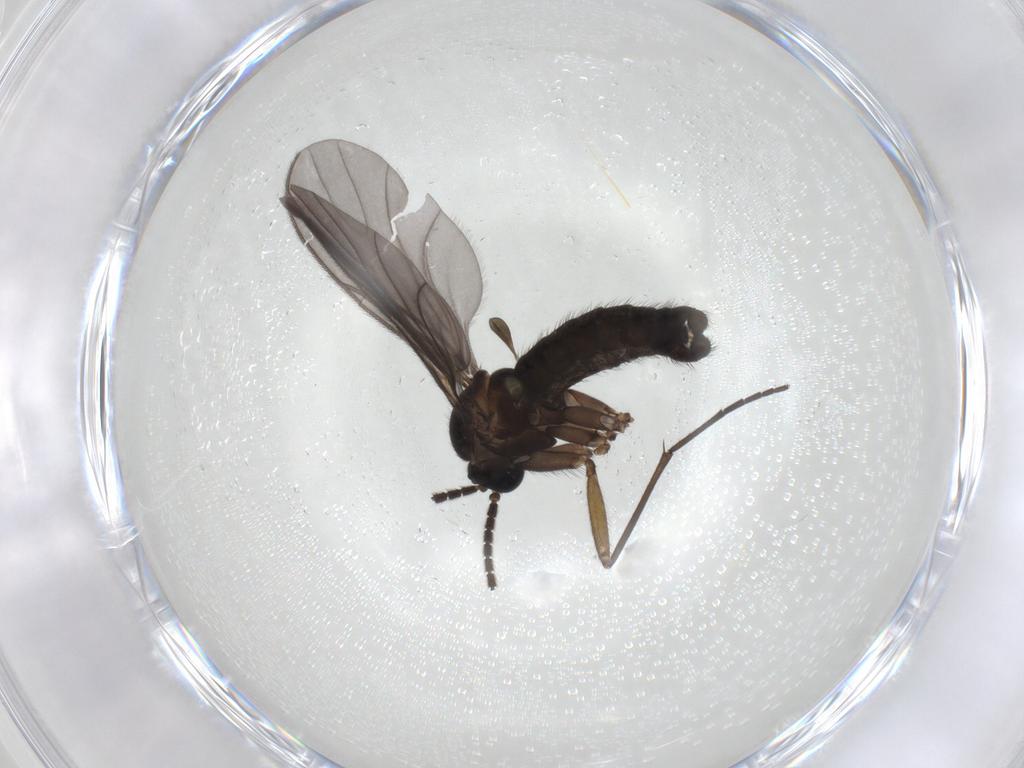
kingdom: Animalia
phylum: Arthropoda
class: Insecta
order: Diptera
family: Sciaridae
